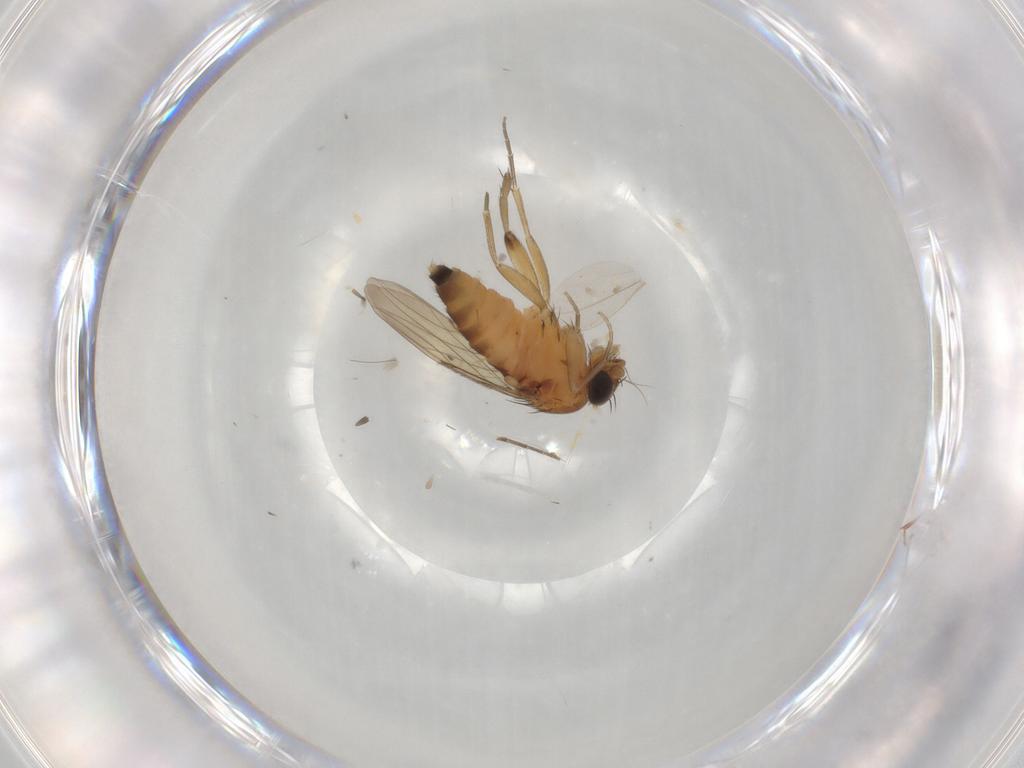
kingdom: Animalia
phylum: Arthropoda
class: Insecta
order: Diptera
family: Phoridae
